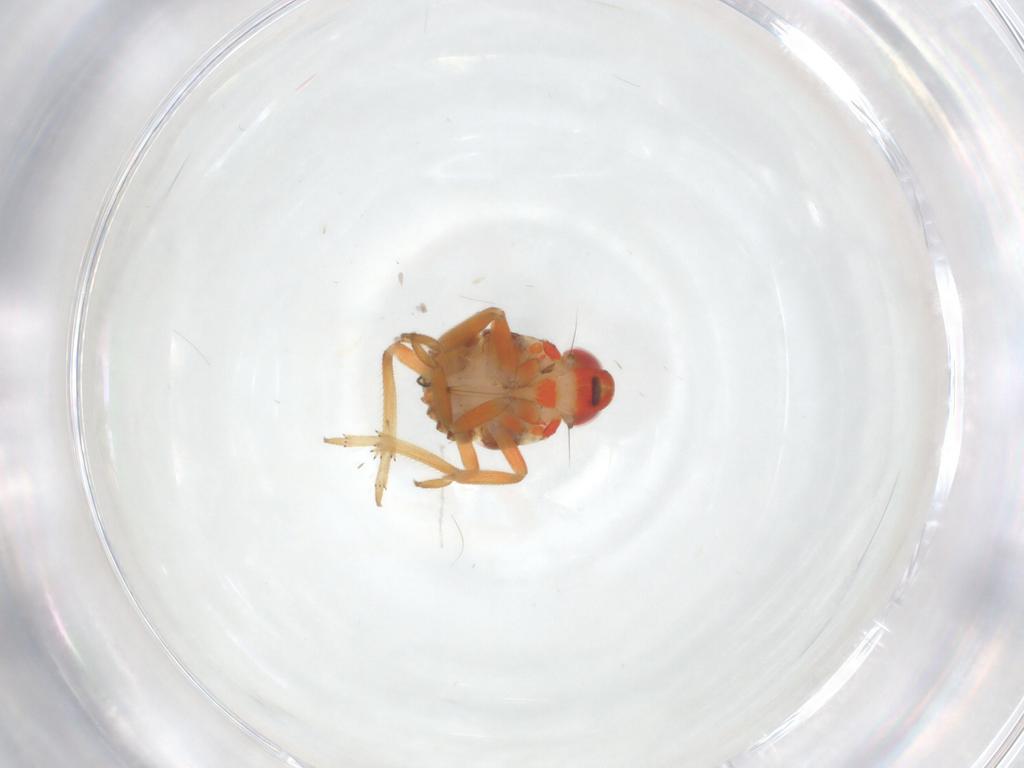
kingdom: Animalia
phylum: Arthropoda
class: Insecta
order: Hemiptera
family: Issidae
